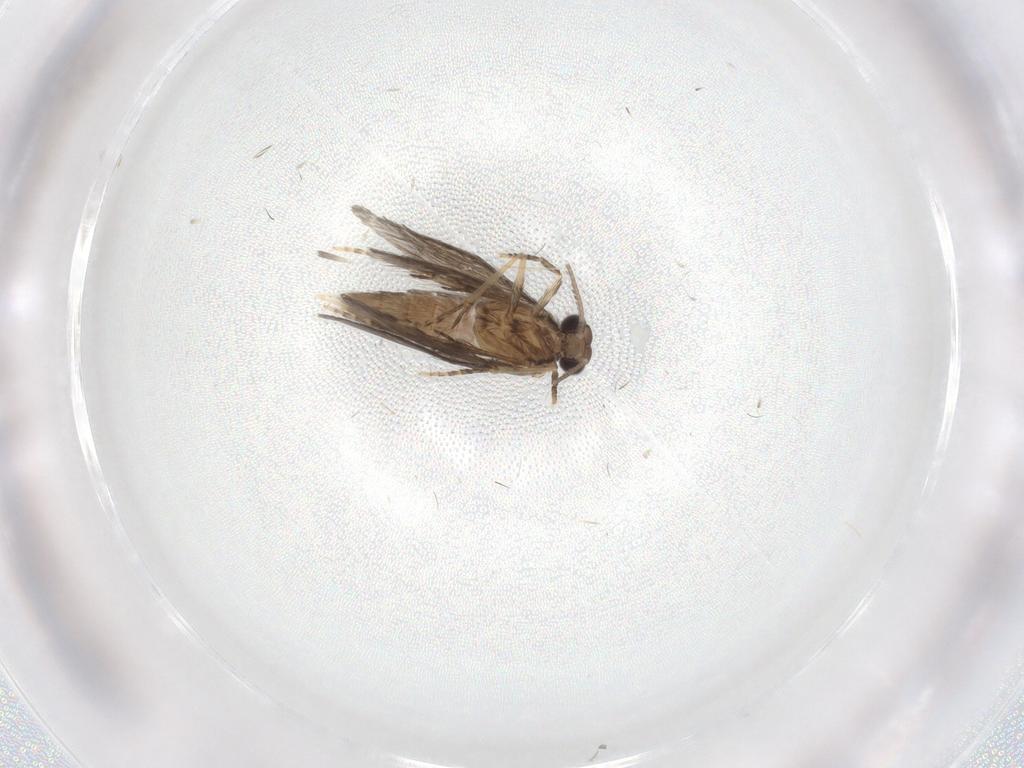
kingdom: Animalia
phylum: Arthropoda
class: Insecta
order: Trichoptera
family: Hydroptilidae
